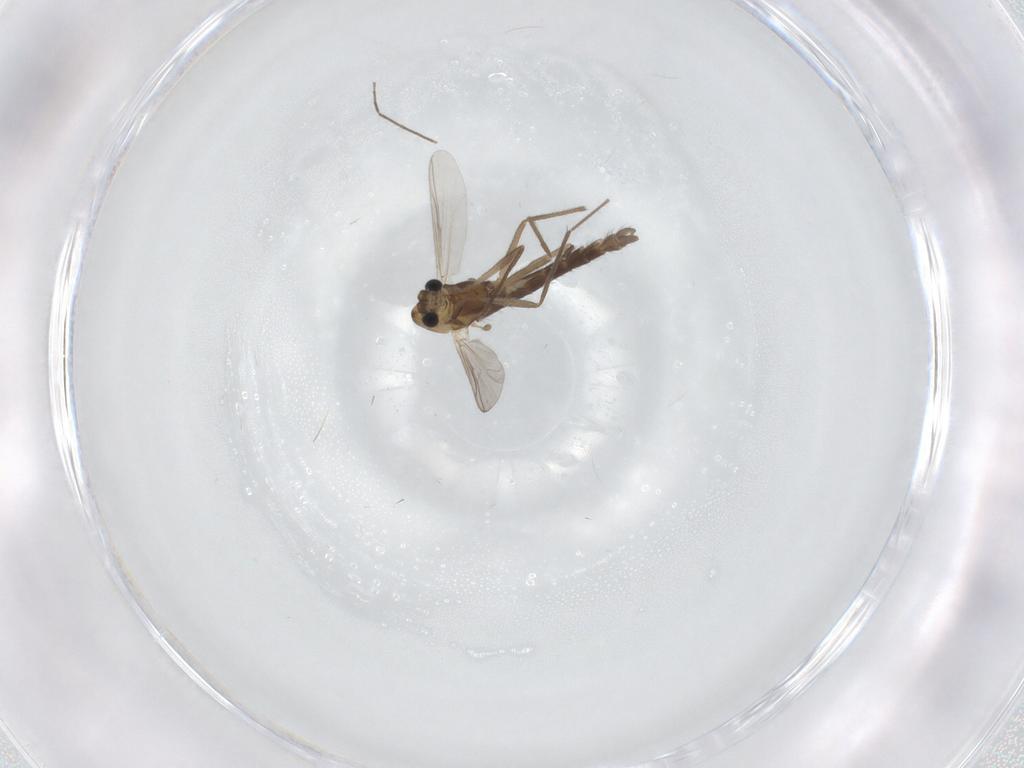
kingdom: Animalia
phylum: Arthropoda
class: Insecta
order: Diptera
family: Chironomidae
